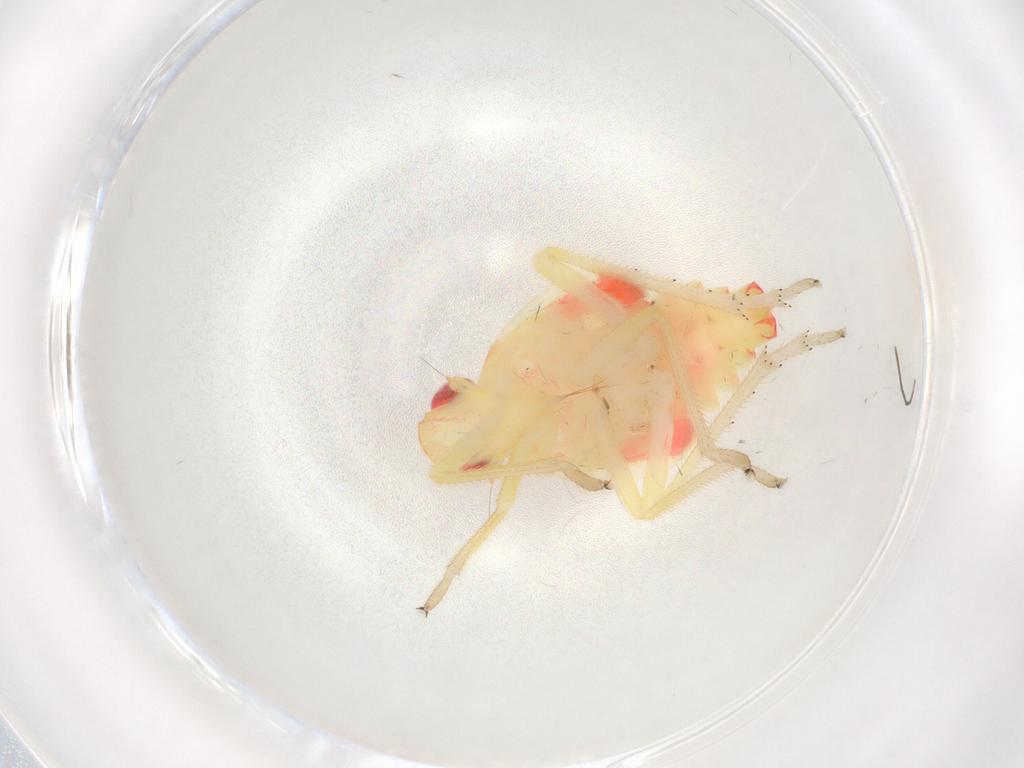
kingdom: Animalia
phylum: Arthropoda
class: Insecta
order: Hemiptera
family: Tropiduchidae
